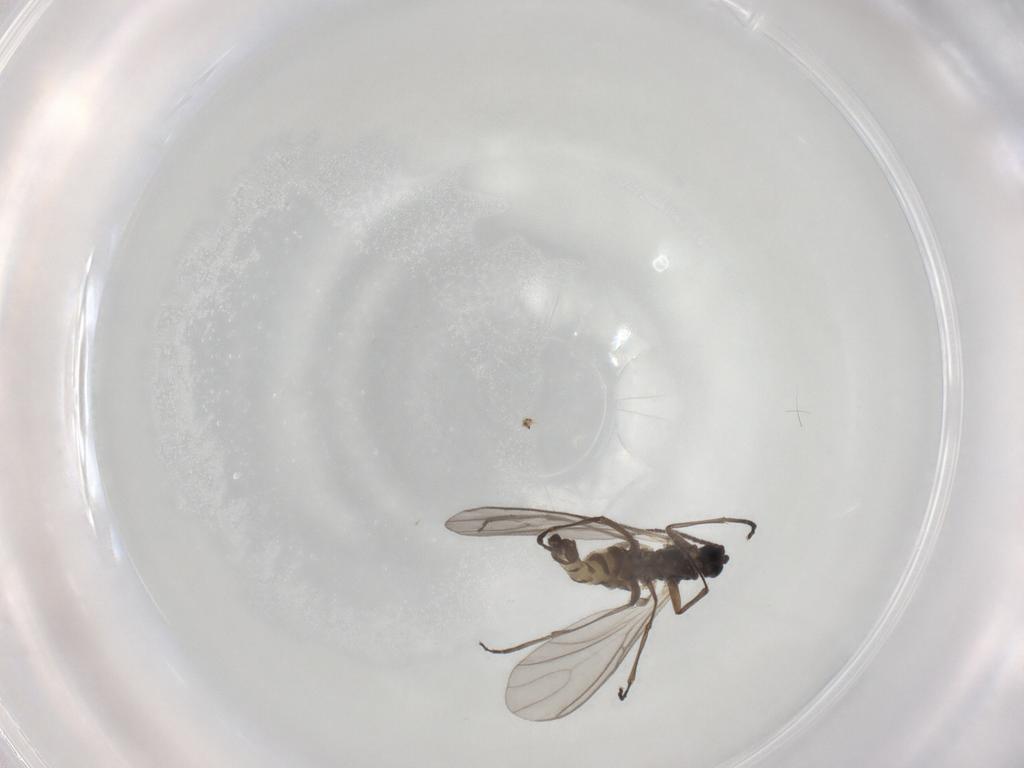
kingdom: Animalia
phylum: Arthropoda
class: Insecta
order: Diptera
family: Sciaridae
